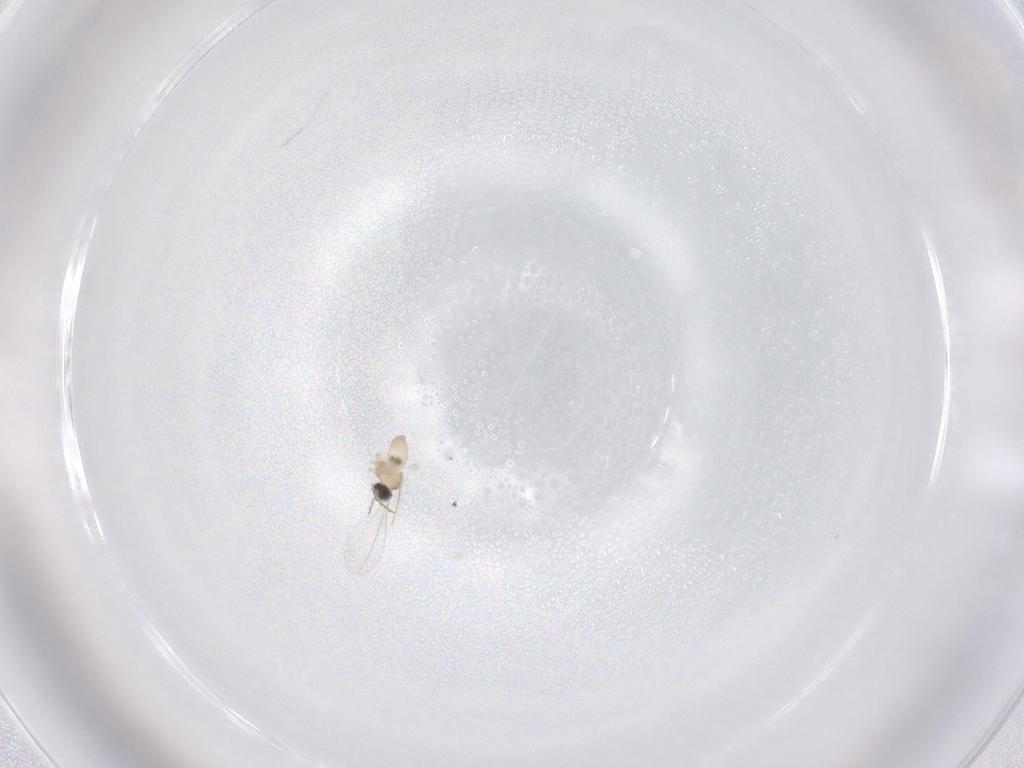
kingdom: Animalia
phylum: Arthropoda
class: Insecta
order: Diptera
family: Cecidomyiidae
